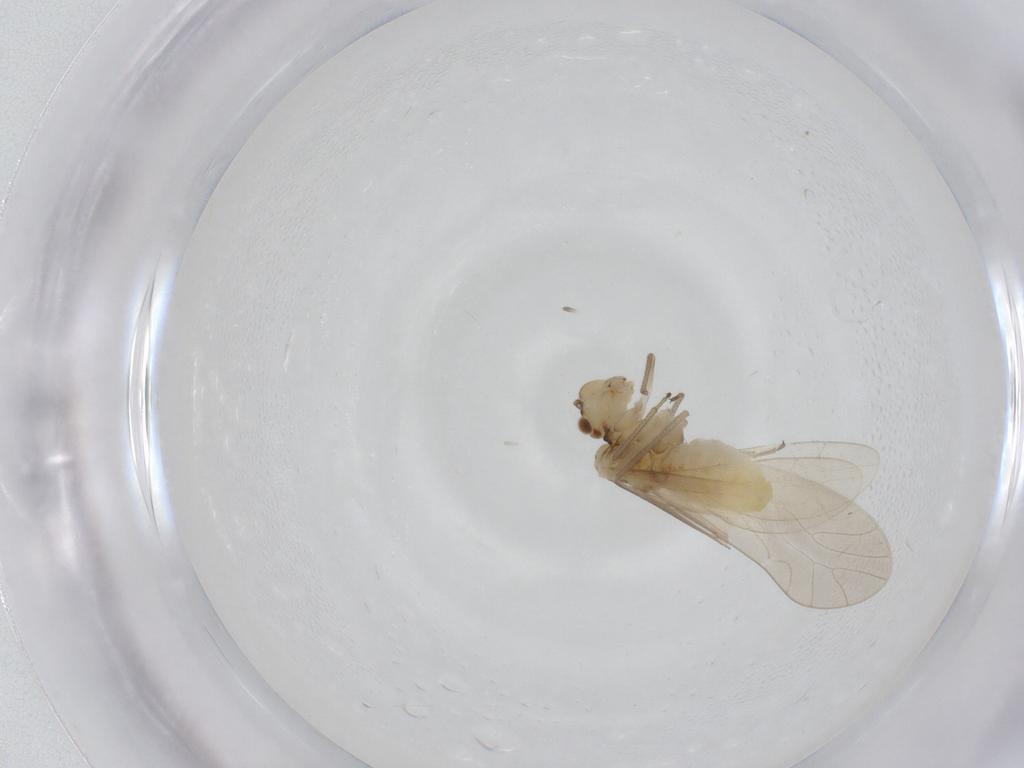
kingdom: Animalia
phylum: Arthropoda
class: Insecta
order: Psocodea
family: Caeciliusidae
